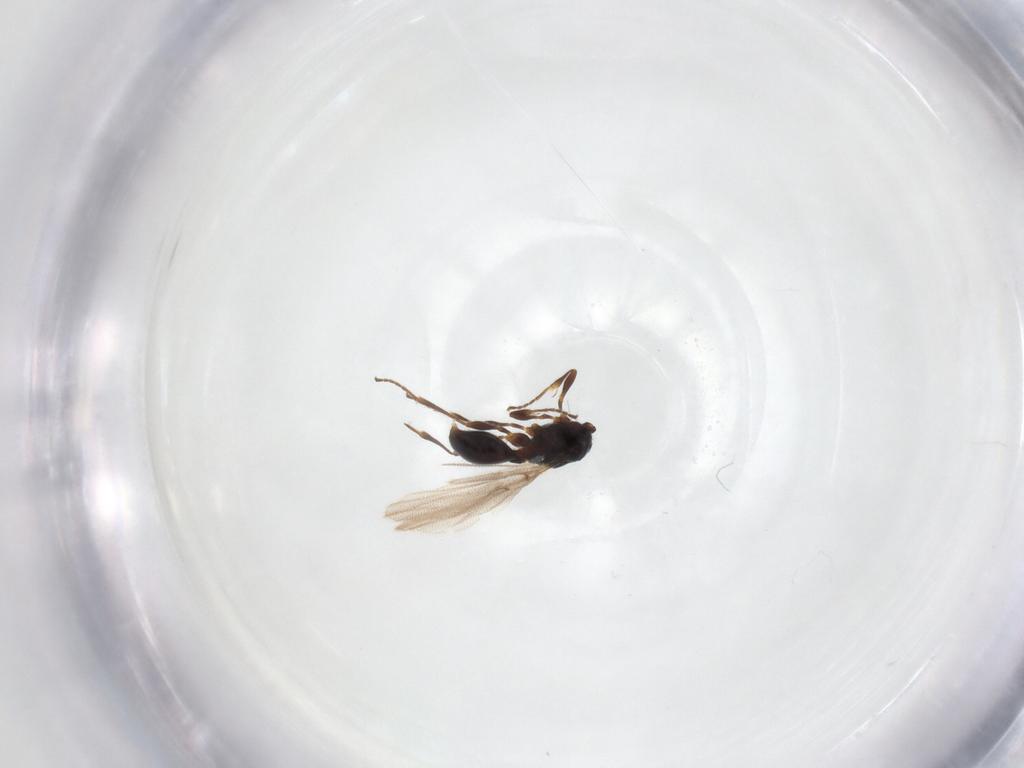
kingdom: Animalia
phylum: Arthropoda
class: Insecta
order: Hymenoptera
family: Diapriidae
